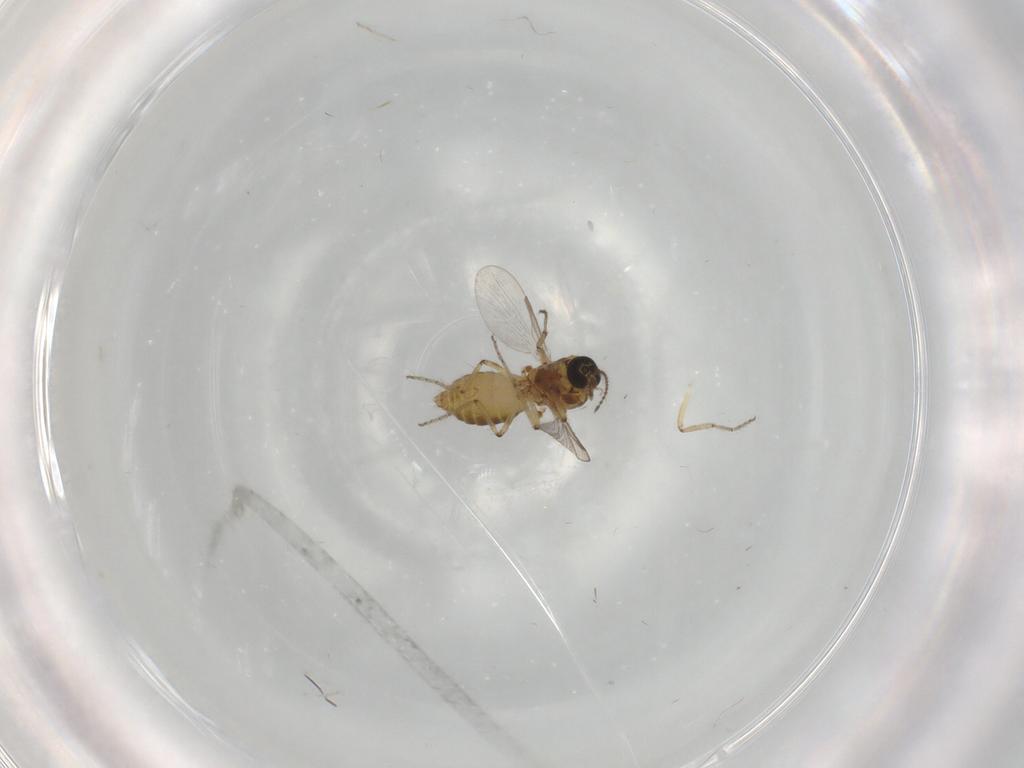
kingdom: Animalia
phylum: Arthropoda
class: Insecta
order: Diptera
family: Ceratopogonidae
